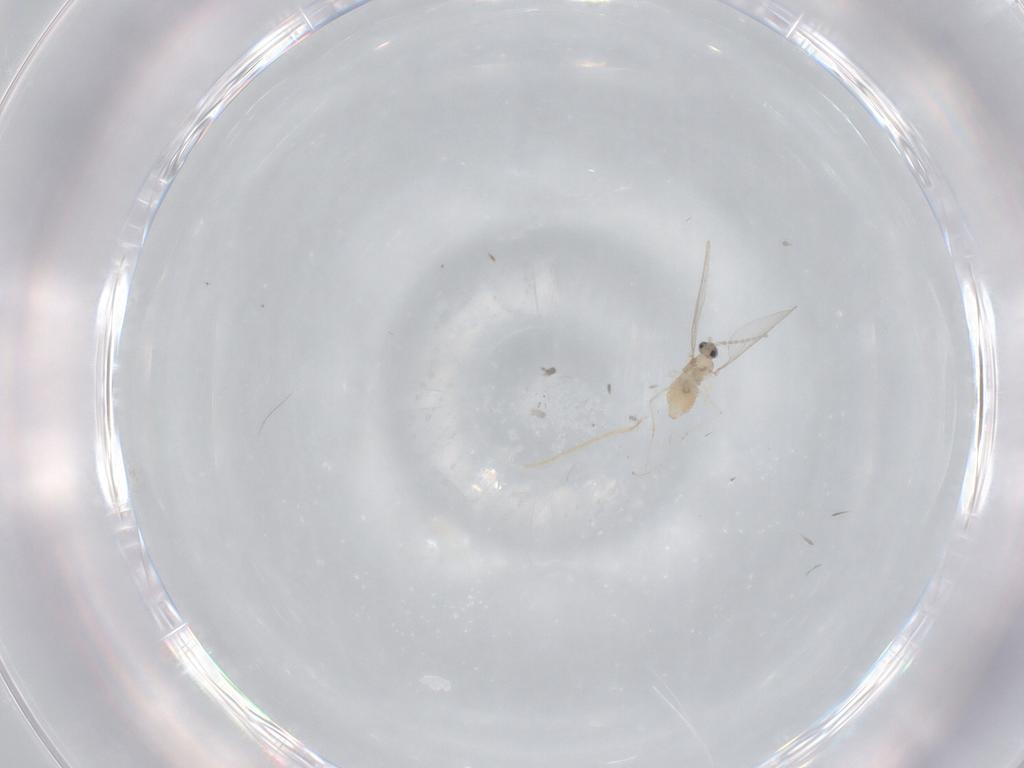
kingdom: Animalia
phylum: Arthropoda
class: Insecta
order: Diptera
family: Cecidomyiidae
